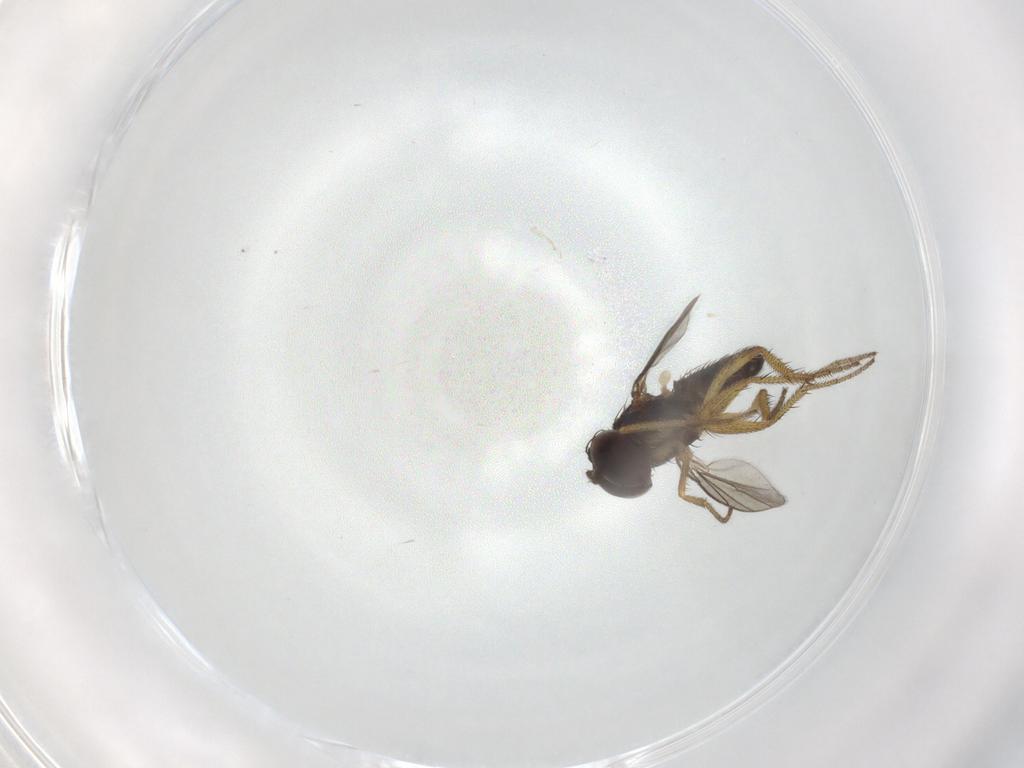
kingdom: Animalia
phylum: Arthropoda
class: Insecta
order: Diptera
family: Dolichopodidae
